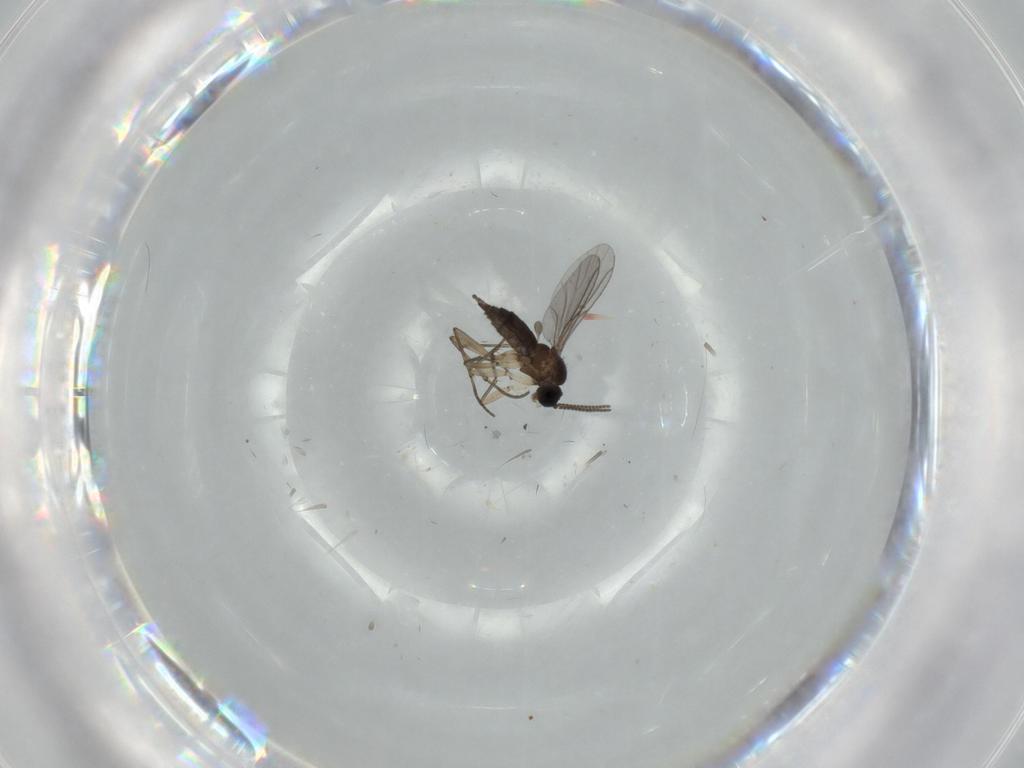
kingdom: Animalia
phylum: Arthropoda
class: Insecta
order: Diptera
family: Sciaridae
